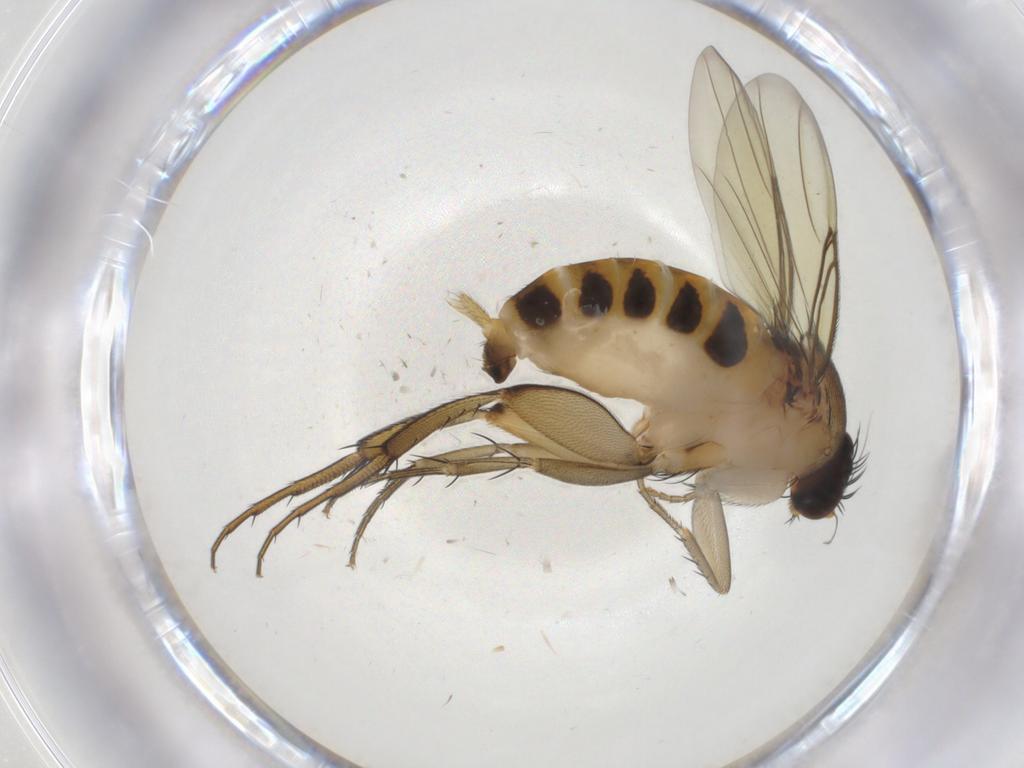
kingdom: Animalia
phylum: Arthropoda
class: Insecta
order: Diptera
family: Phoridae
